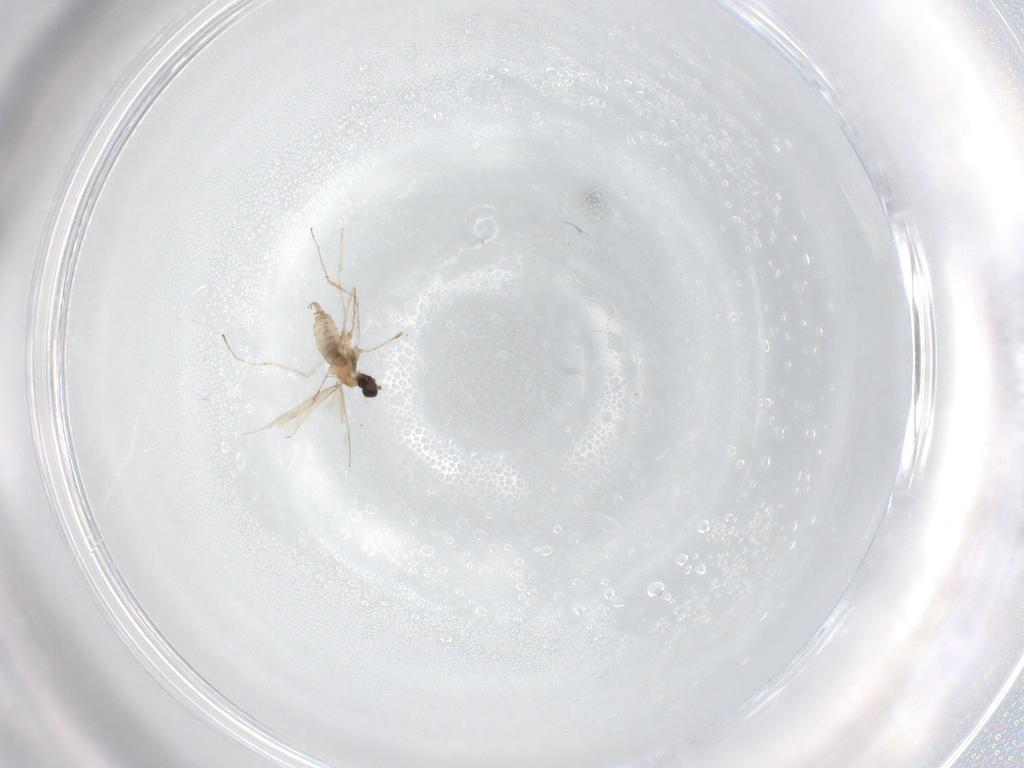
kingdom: Animalia
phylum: Arthropoda
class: Insecta
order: Diptera
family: Cecidomyiidae
